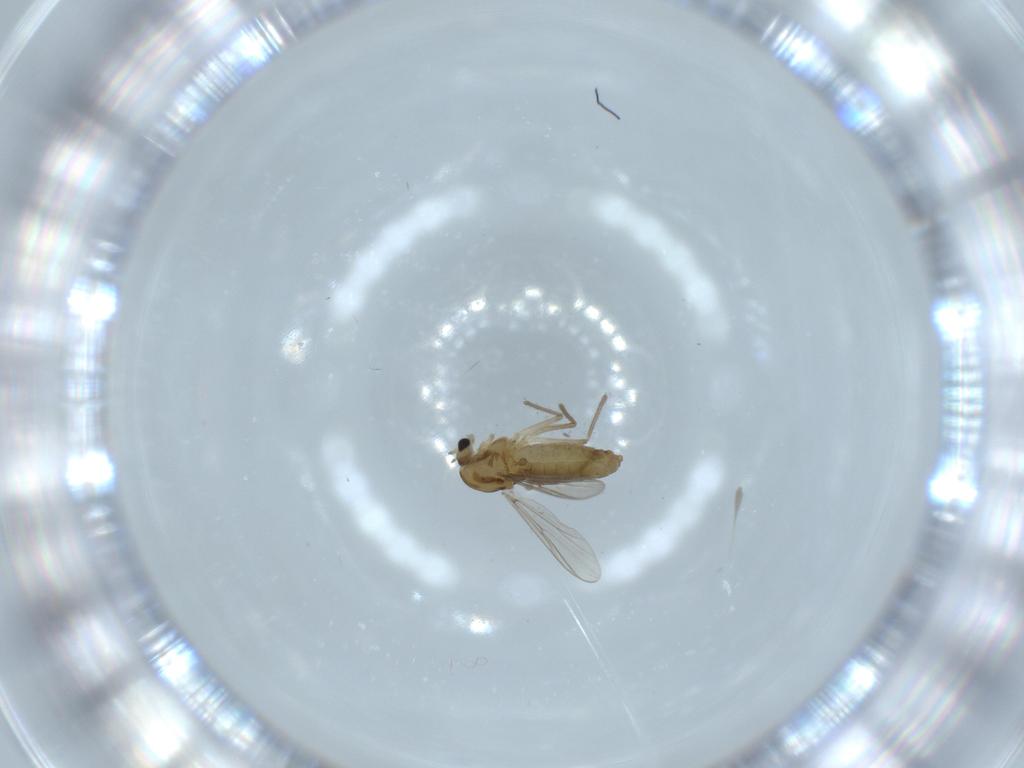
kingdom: Animalia
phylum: Arthropoda
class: Insecta
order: Diptera
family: Chironomidae
